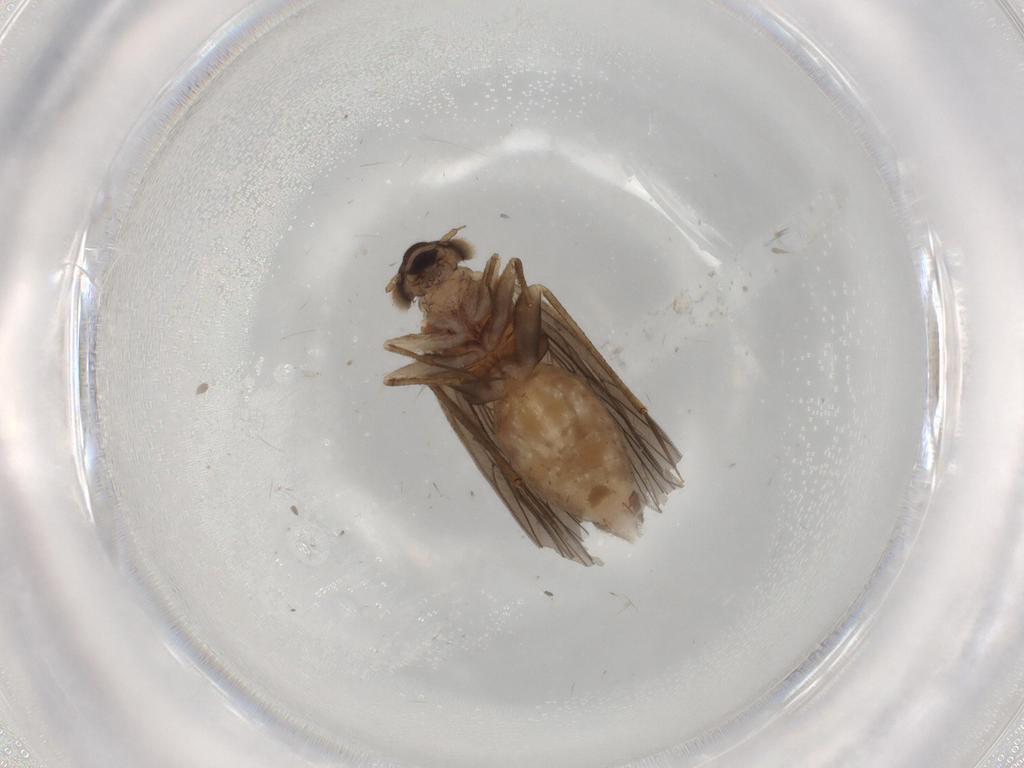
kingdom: Animalia
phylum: Arthropoda
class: Insecta
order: Psocodea
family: Lepidopsocidae
